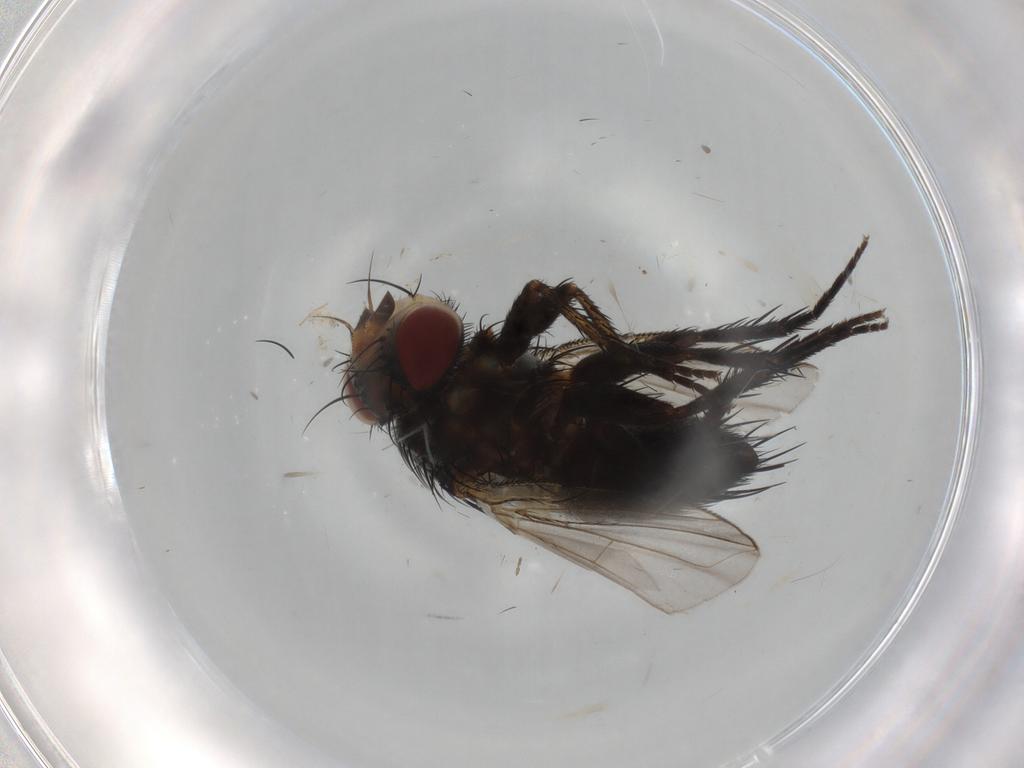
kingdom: Animalia
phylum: Arthropoda
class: Insecta
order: Diptera
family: Tachinidae
